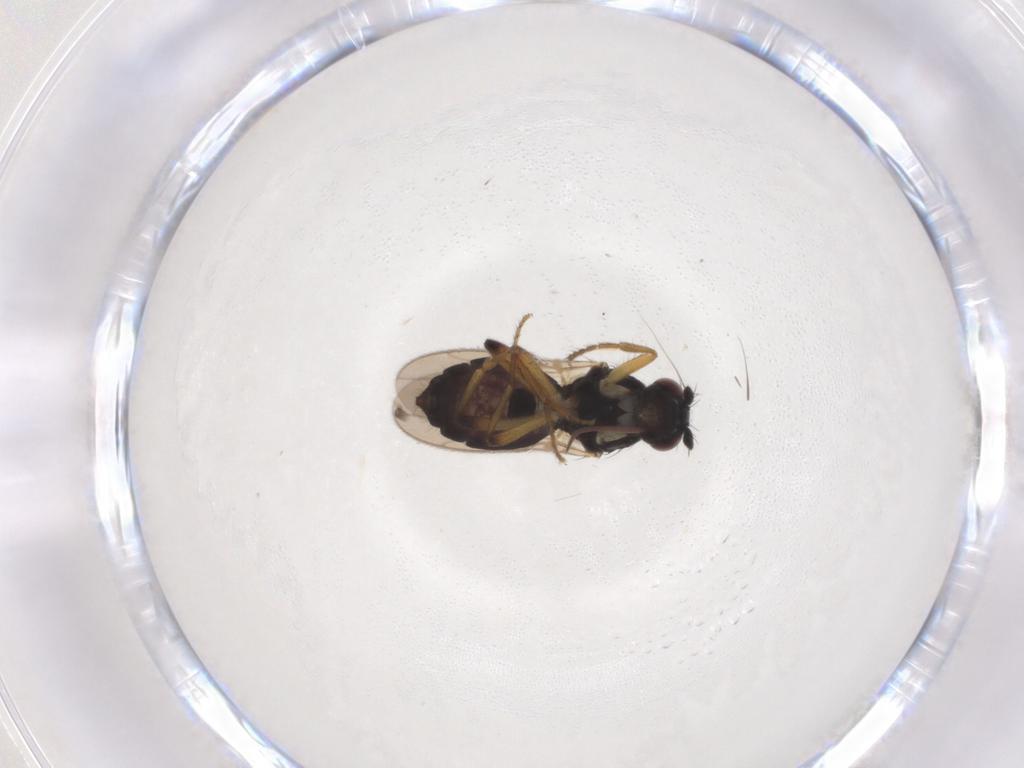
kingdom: Animalia
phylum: Arthropoda
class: Insecta
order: Diptera
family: Sphaeroceridae
